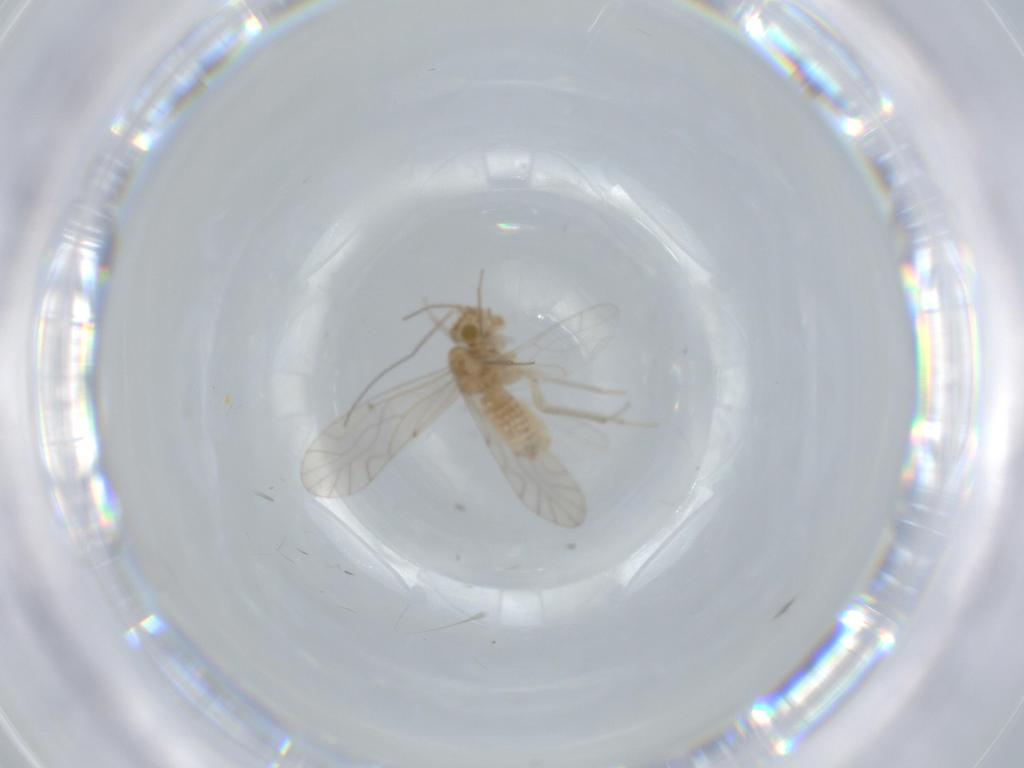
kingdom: Animalia
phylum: Arthropoda
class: Insecta
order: Psocodea
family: Lachesillidae
